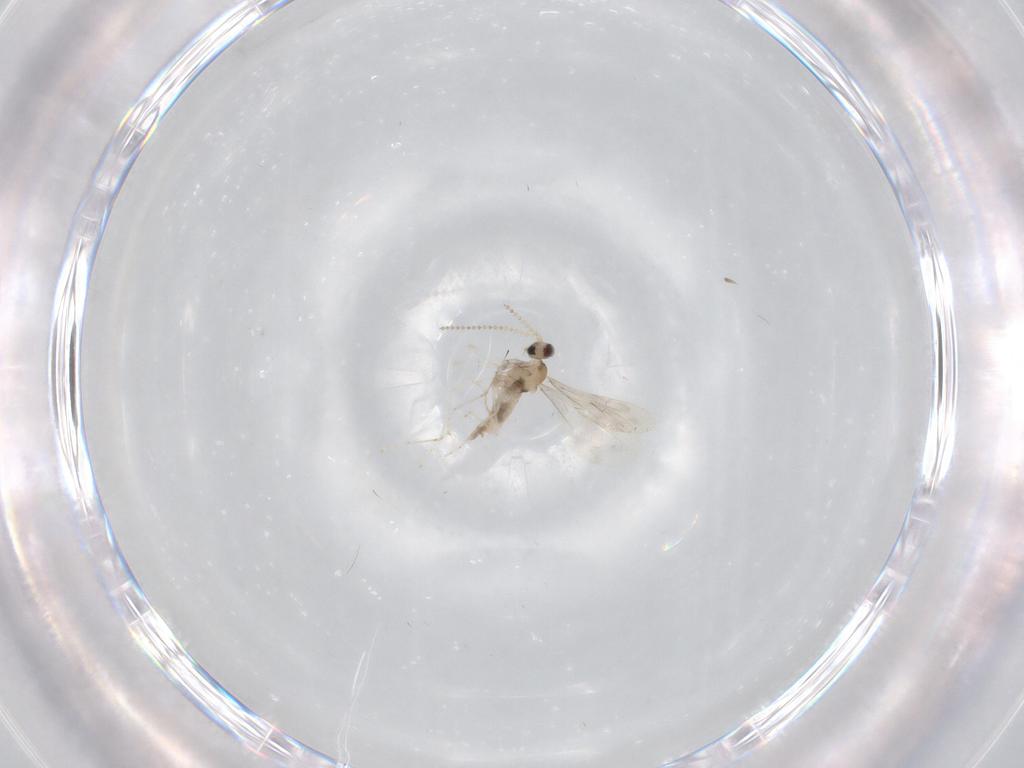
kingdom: Animalia
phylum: Arthropoda
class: Insecta
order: Diptera
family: Cecidomyiidae
